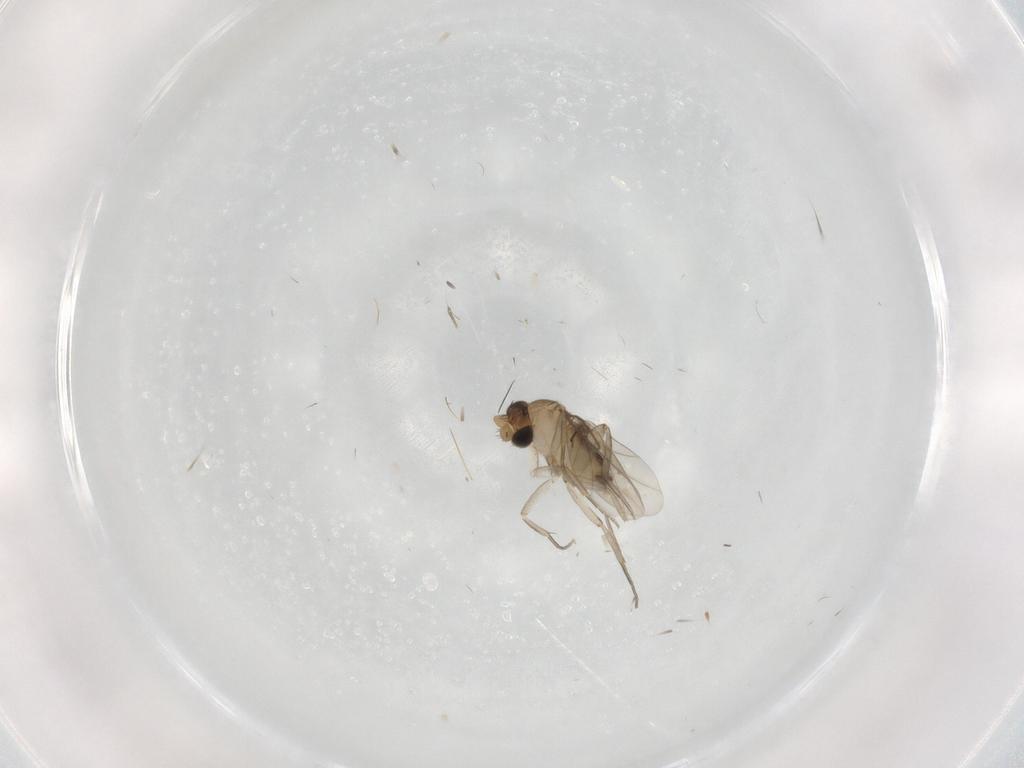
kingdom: Animalia
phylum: Arthropoda
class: Insecta
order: Diptera
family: Phoridae
